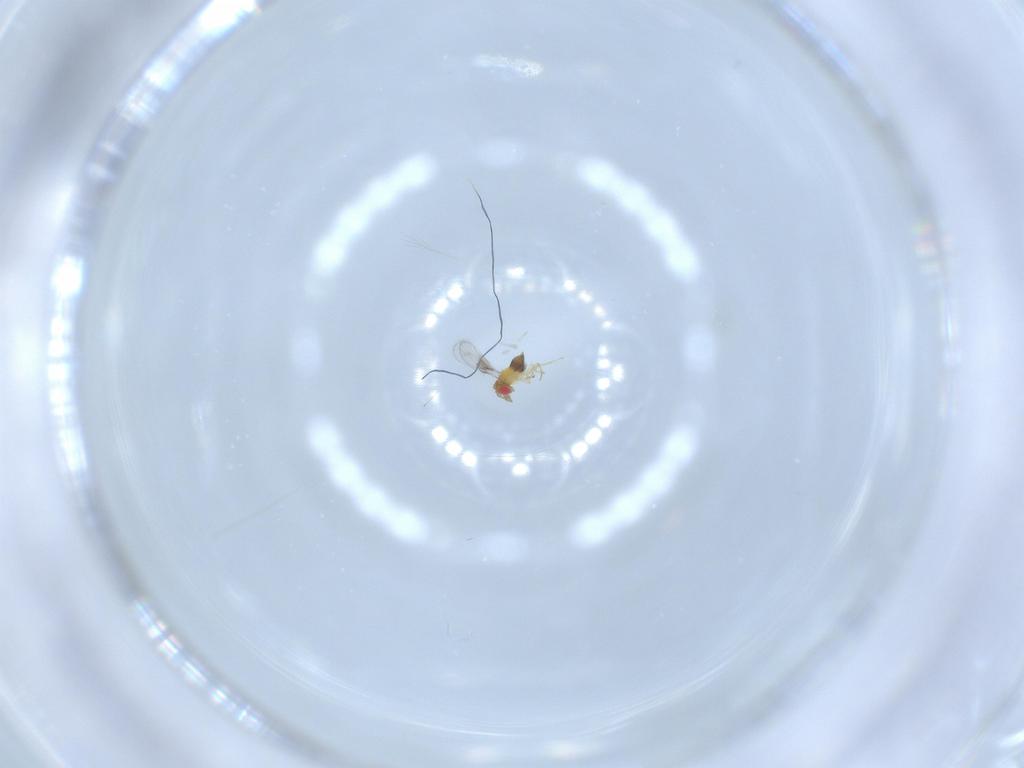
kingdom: Animalia
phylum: Arthropoda
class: Insecta
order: Hymenoptera
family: Trichogrammatidae
